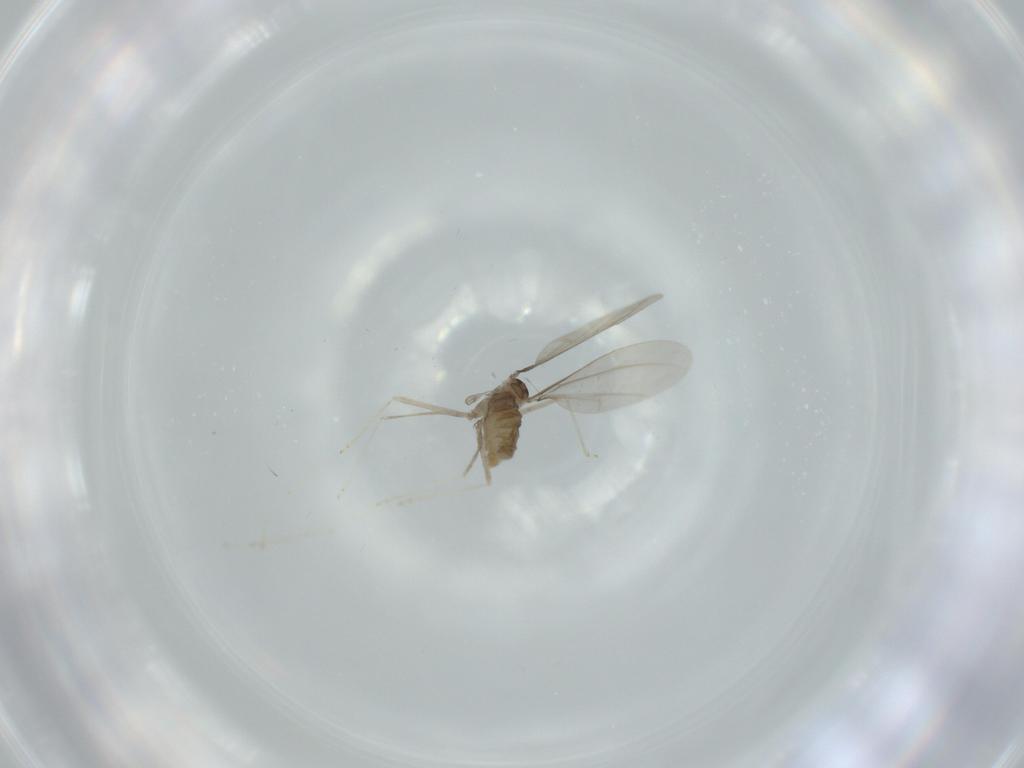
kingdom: Animalia
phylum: Arthropoda
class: Insecta
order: Diptera
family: Cecidomyiidae
